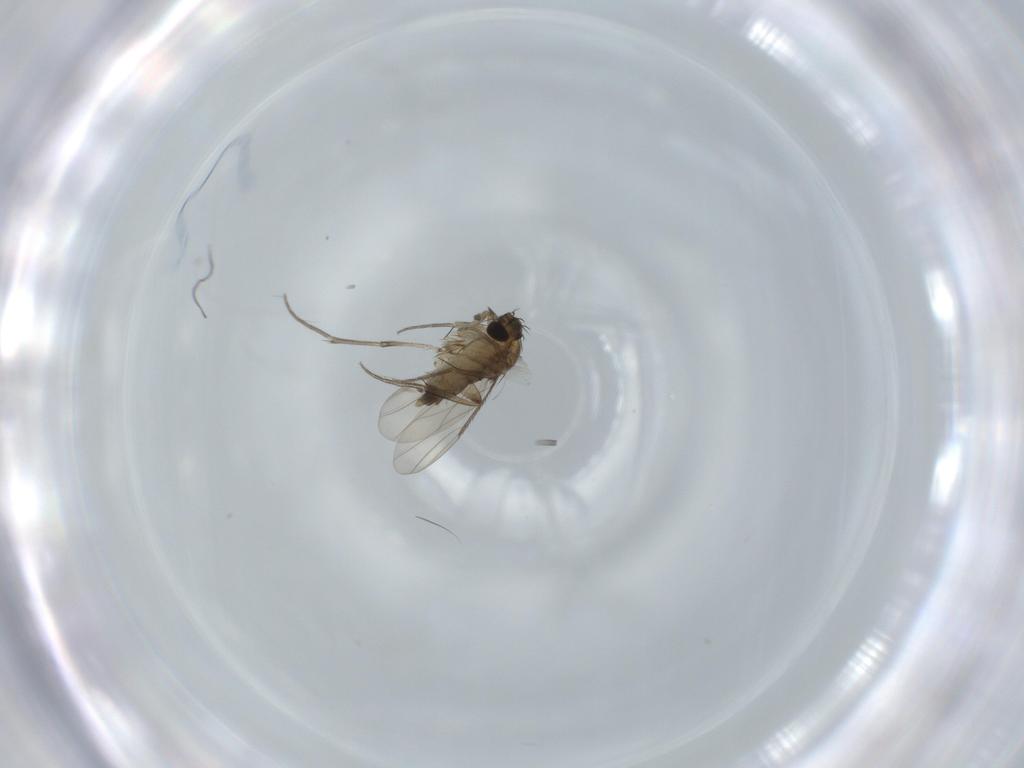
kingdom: Animalia
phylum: Arthropoda
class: Insecta
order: Diptera
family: Phoridae
